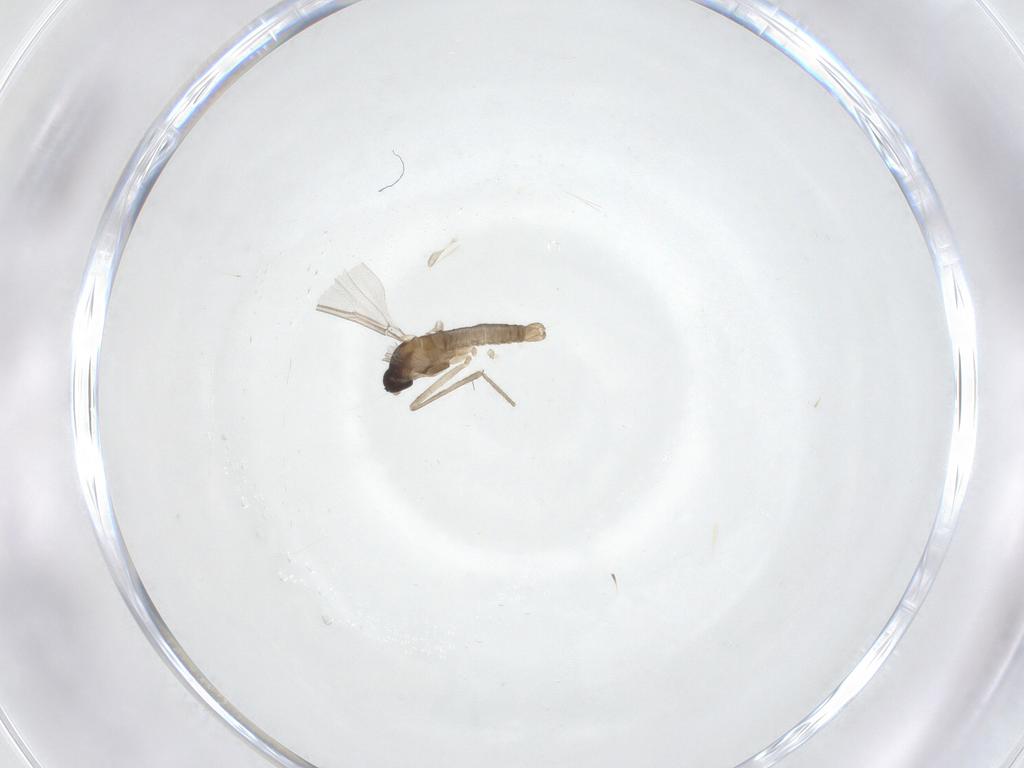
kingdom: Animalia
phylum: Arthropoda
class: Insecta
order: Diptera
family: Cecidomyiidae
